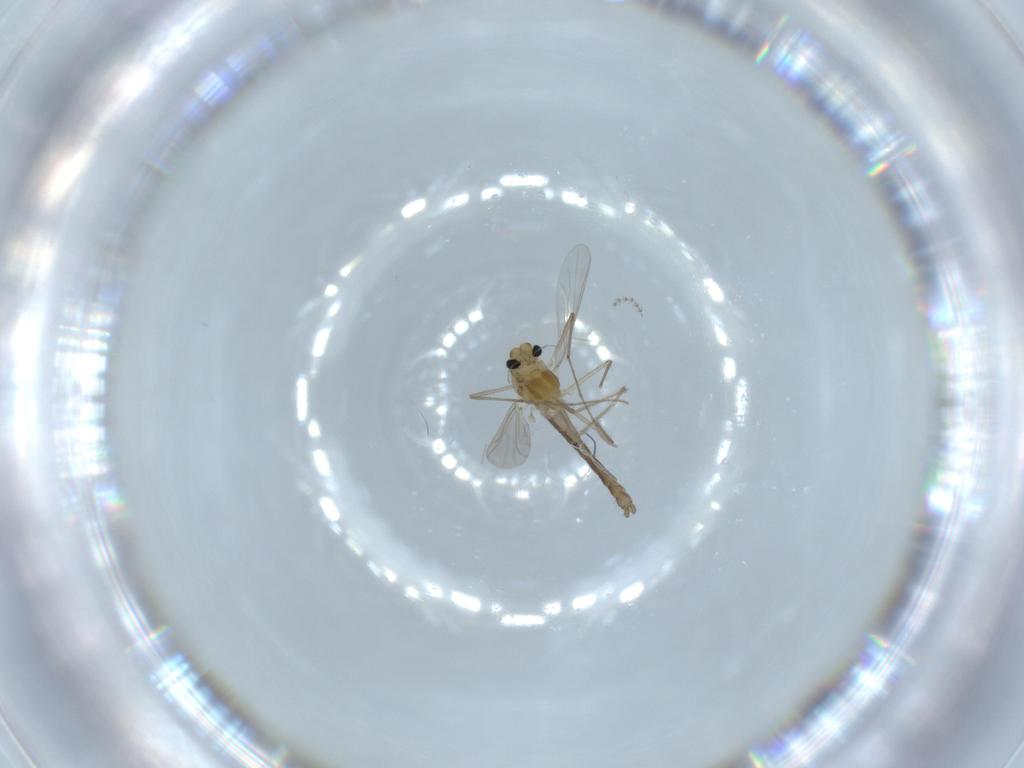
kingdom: Animalia
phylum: Arthropoda
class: Insecta
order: Diptera
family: Chironomidae
